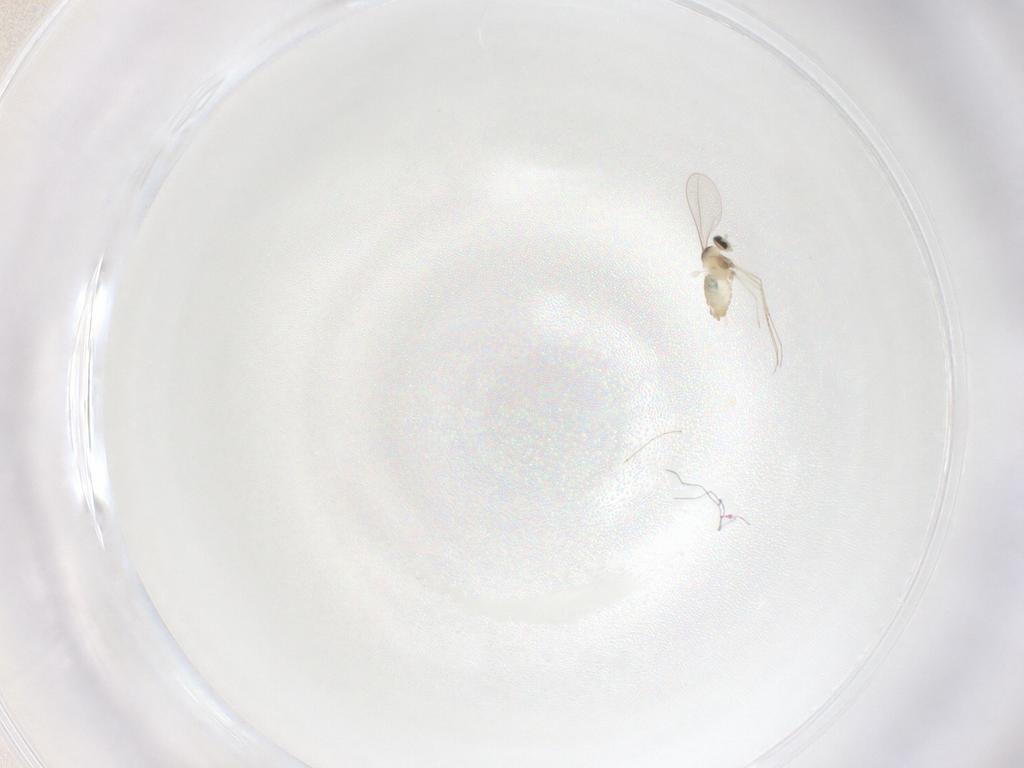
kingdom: Animalia
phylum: Arthropoda
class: Insecta
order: Diptera
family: Cecidomyiidae
